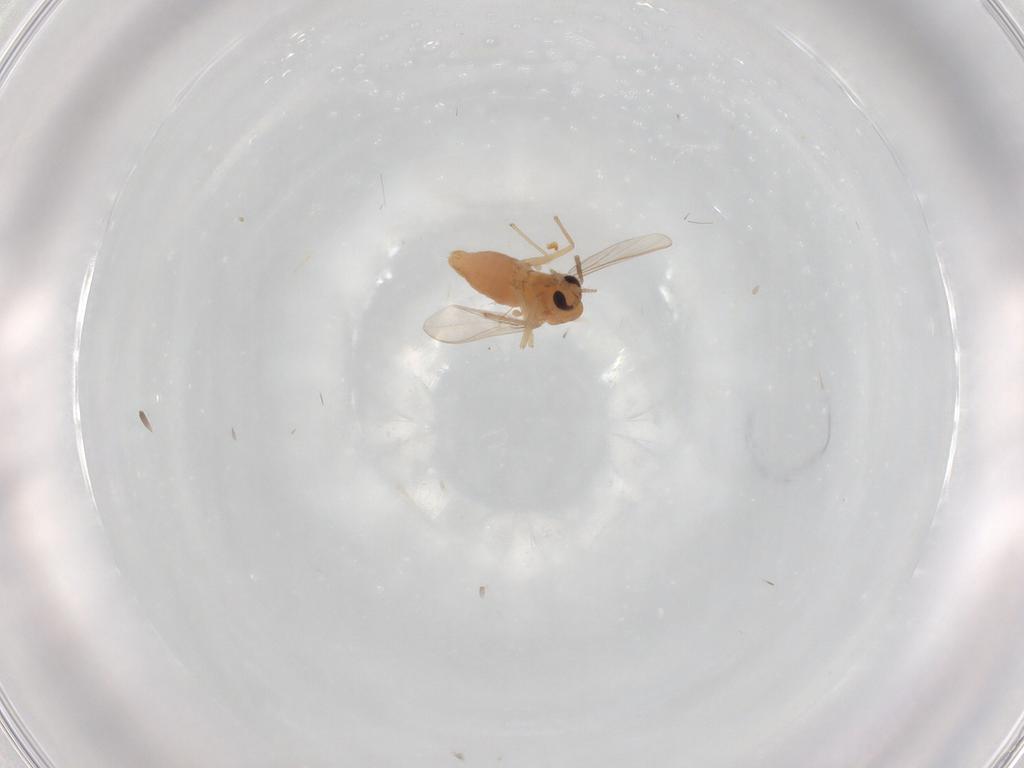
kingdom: Animalia
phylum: Arthropoda
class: Insecta
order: Diptera
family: Chironomidae
